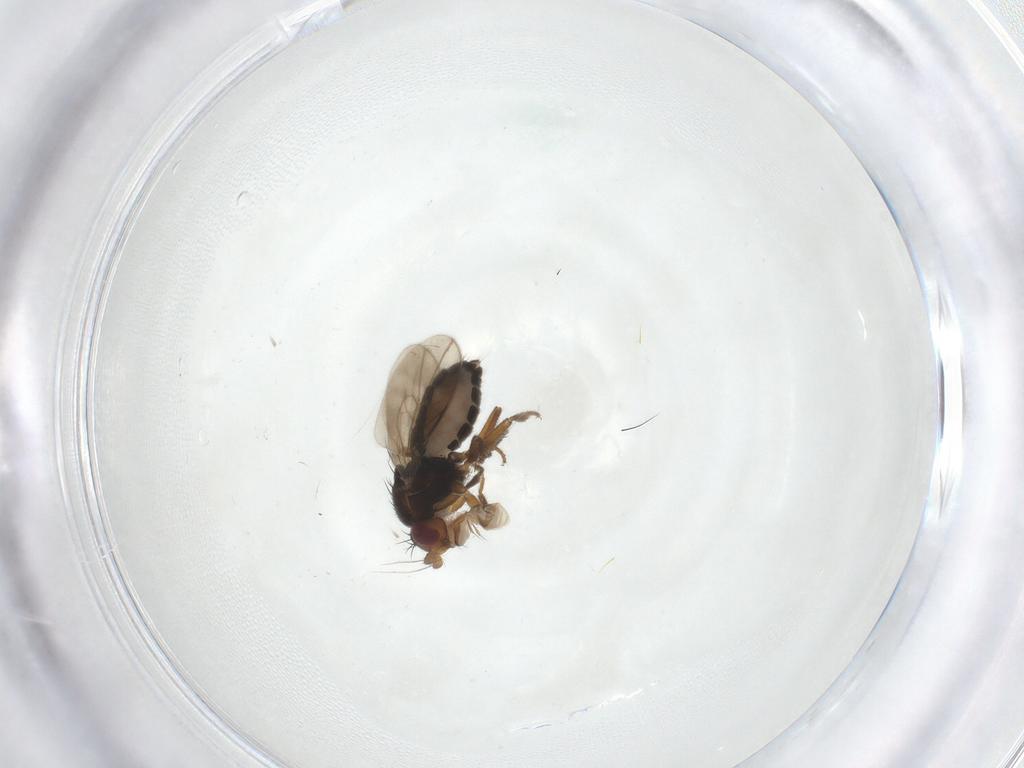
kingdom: Animalia
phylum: Arthropoda
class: Insecta
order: Diptera
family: Sphaeroceridae
